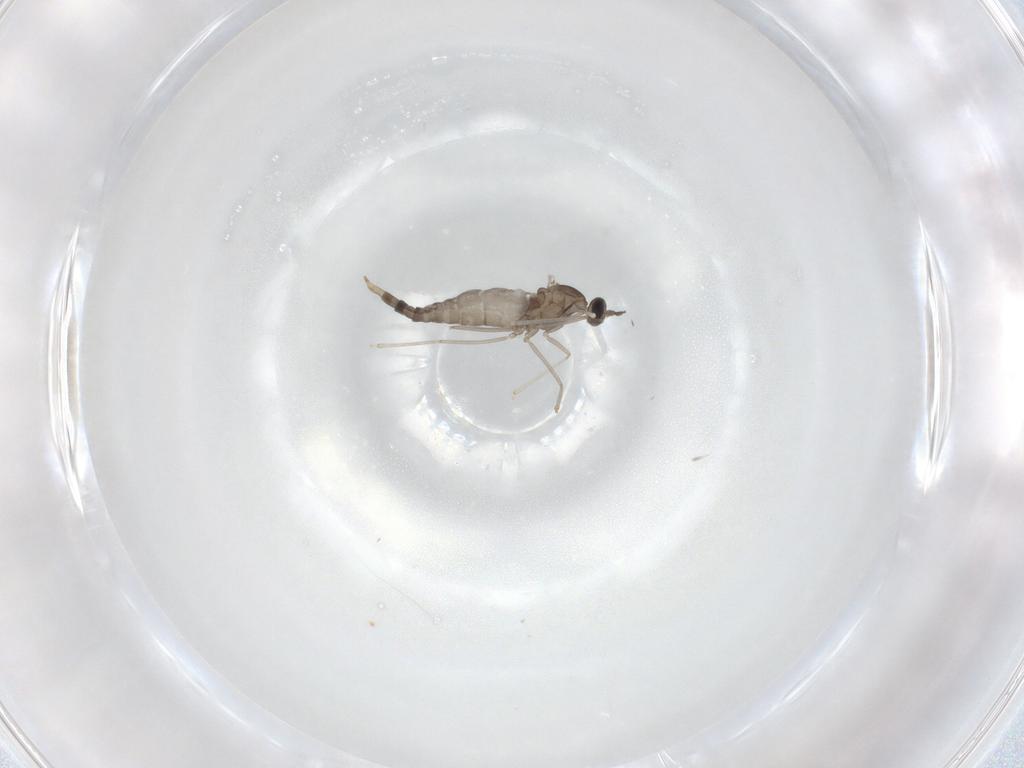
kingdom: Animalia
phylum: Arthropoda
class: Insecta
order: Diptera
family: Cecidomyiidae
